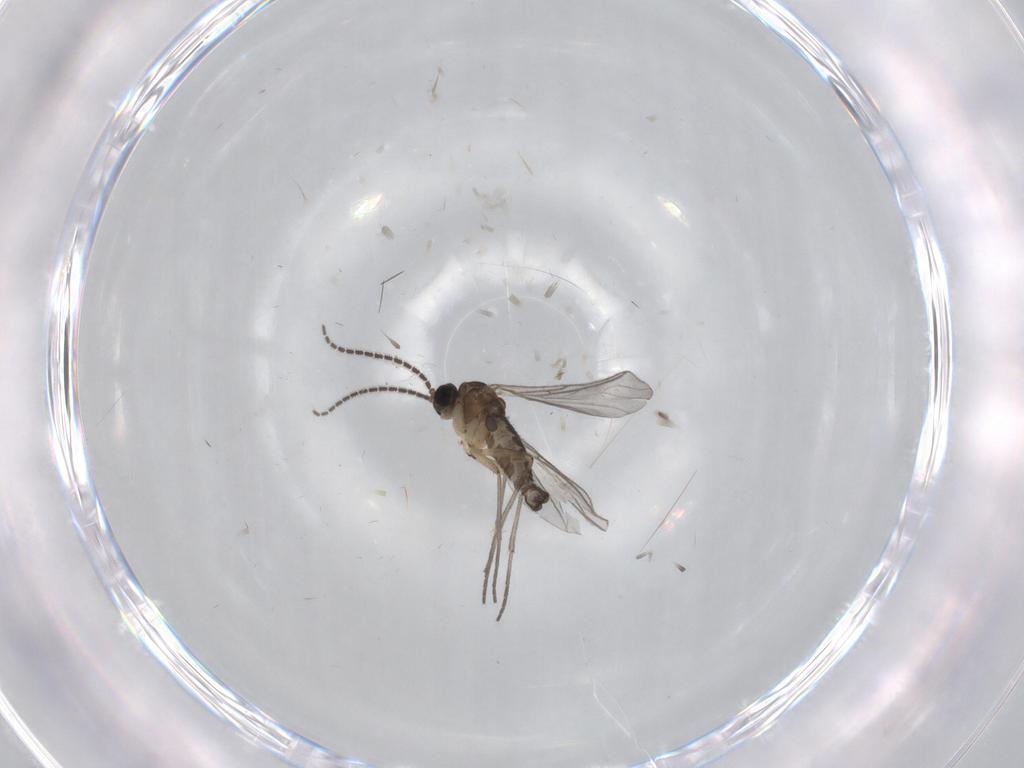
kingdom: Animalia
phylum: Arthropoda
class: Insecta
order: Diptera
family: Sciaridae
